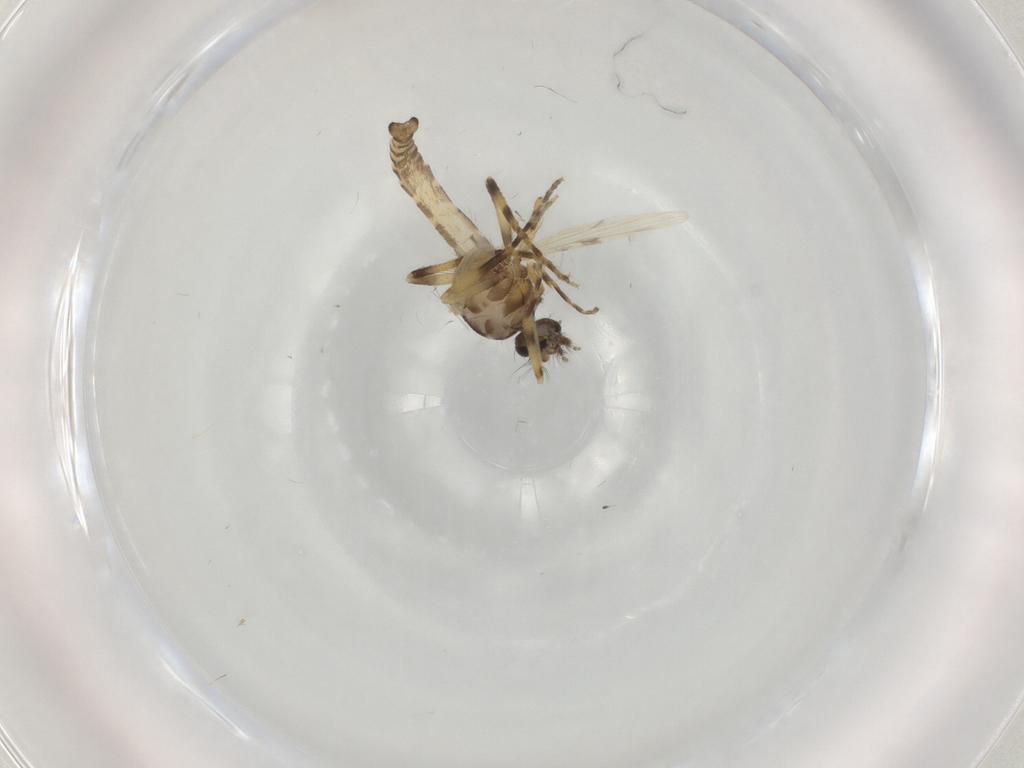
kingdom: Animalia
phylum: Arthropoda
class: Insecta
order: Diptera
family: Ceratopogonidae
